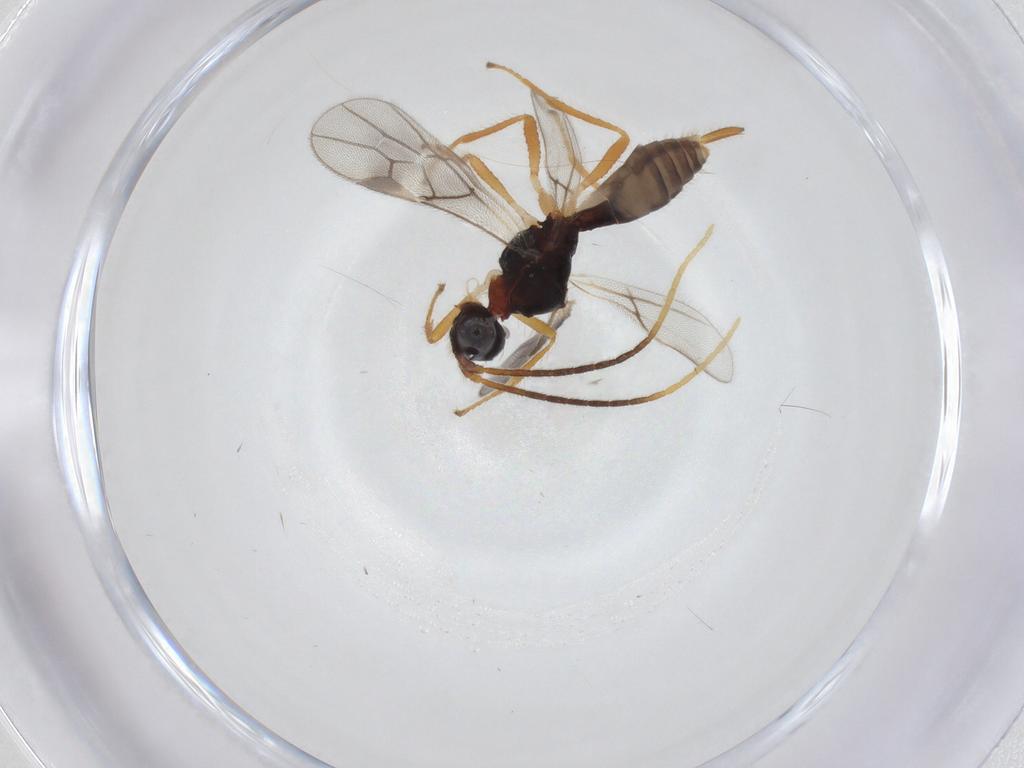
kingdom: Animalia
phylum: Arthropoda
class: Insecta
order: Hymenoptera
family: Braconidae
